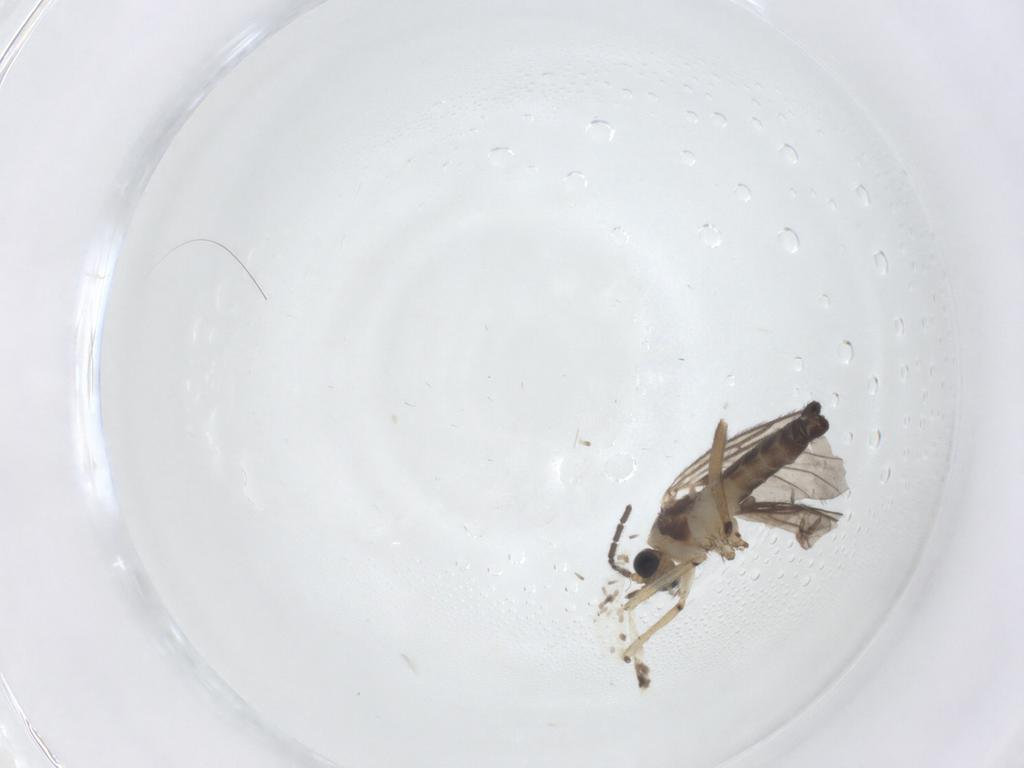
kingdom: Animalia
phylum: Arthropoda
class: Insecta
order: Diptera
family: Sciaridae
